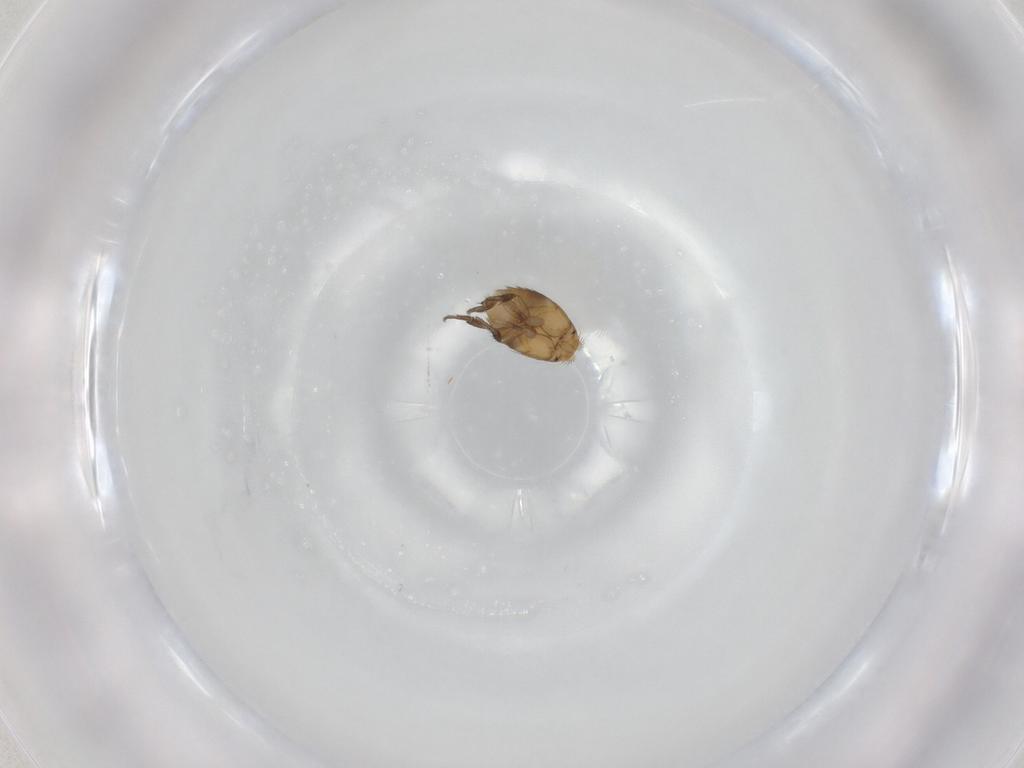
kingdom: Animalia
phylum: Arthropoda
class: Insecta
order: Diptera
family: Phoridae
